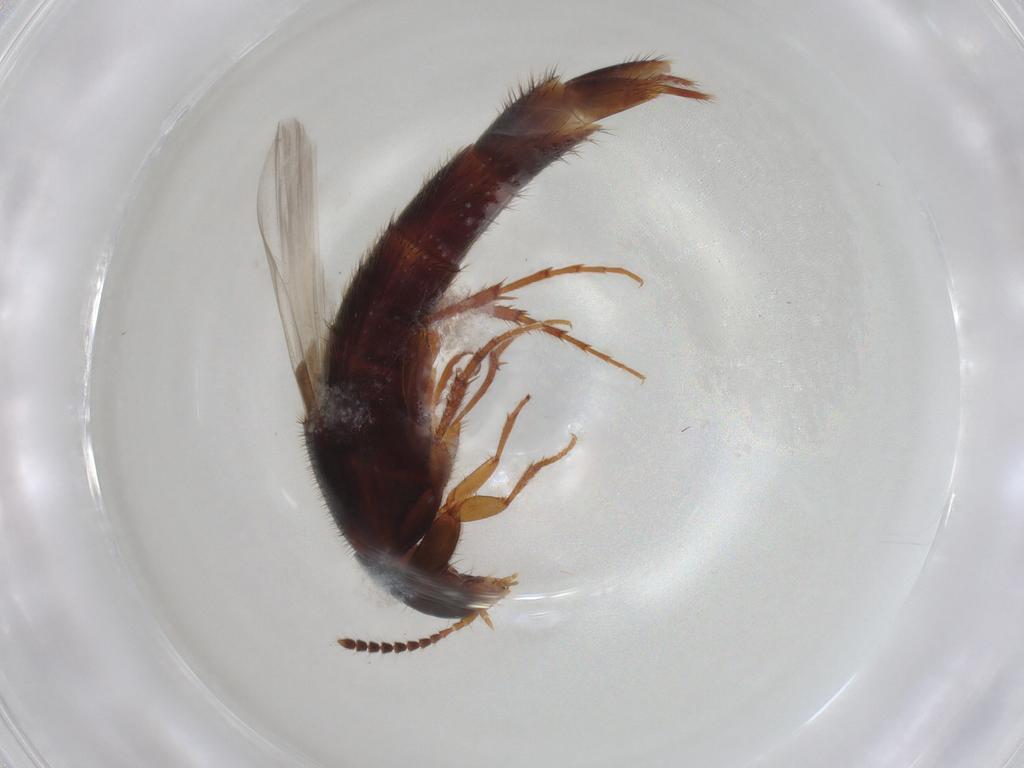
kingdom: Animalia
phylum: Arthropoda
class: Insecta
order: Coleoptera
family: Staphylinidae
